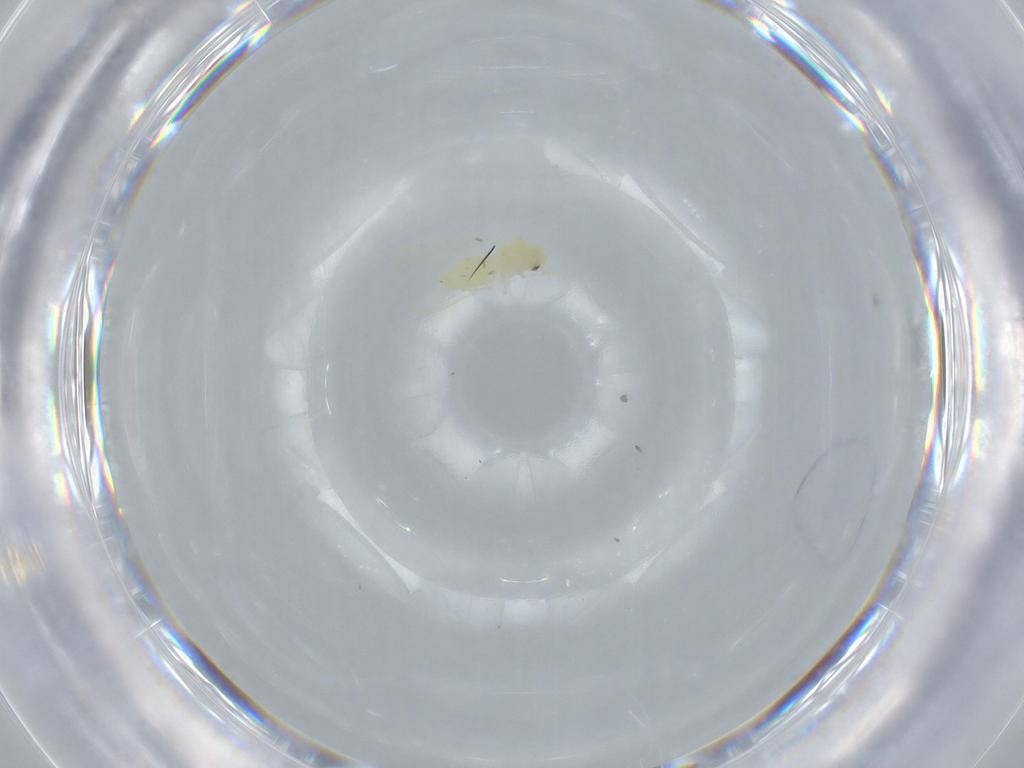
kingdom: Animalia
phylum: Arthropoda
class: Insecta
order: Hemiptera
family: Aleyrodidae
